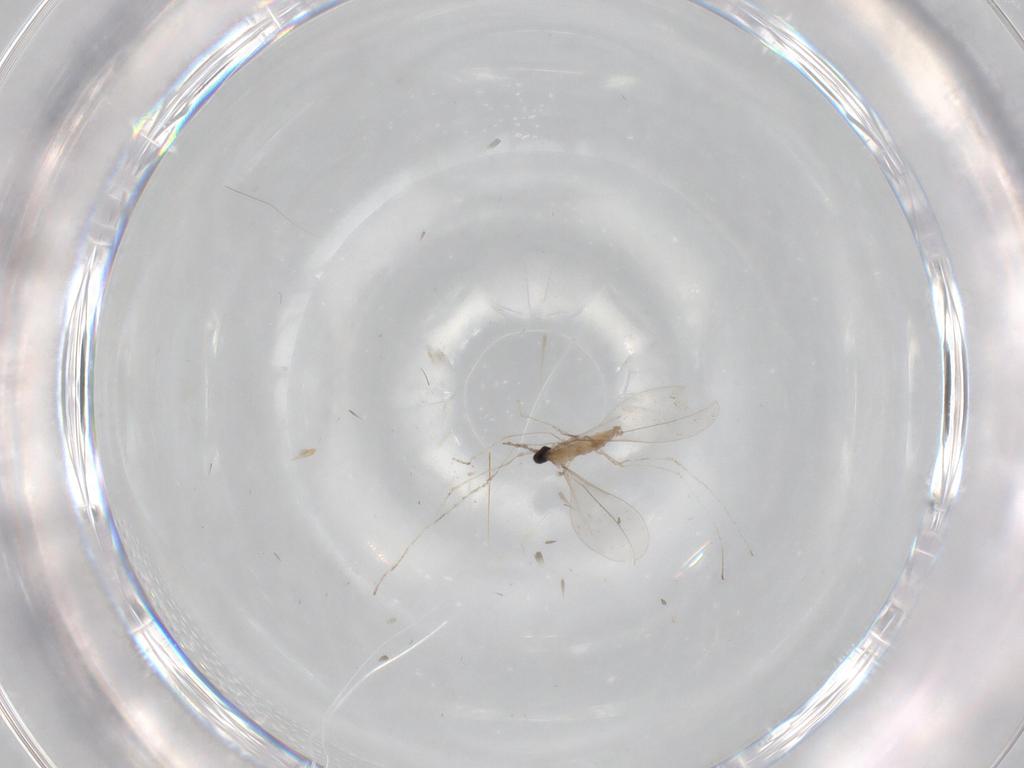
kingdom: Animalia
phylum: Arthropoda
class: Insecta
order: Diptera
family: Cecidomyiidae
